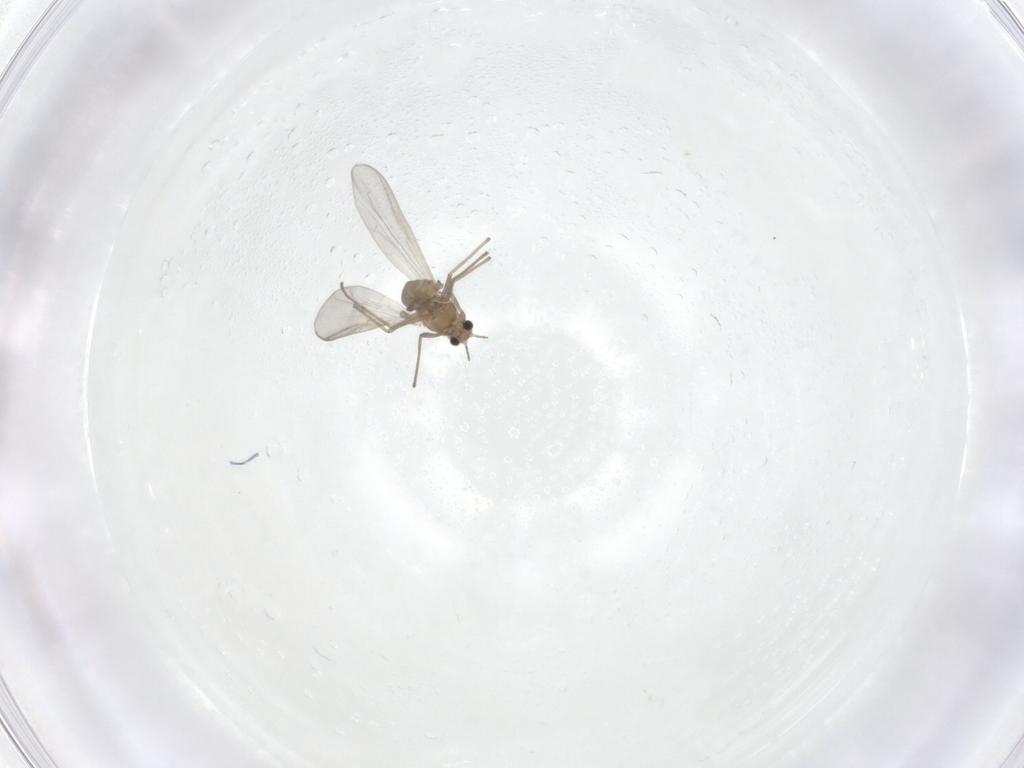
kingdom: Animalia
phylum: Arthropoda
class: Insecta
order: Diptera
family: Chironomidae
